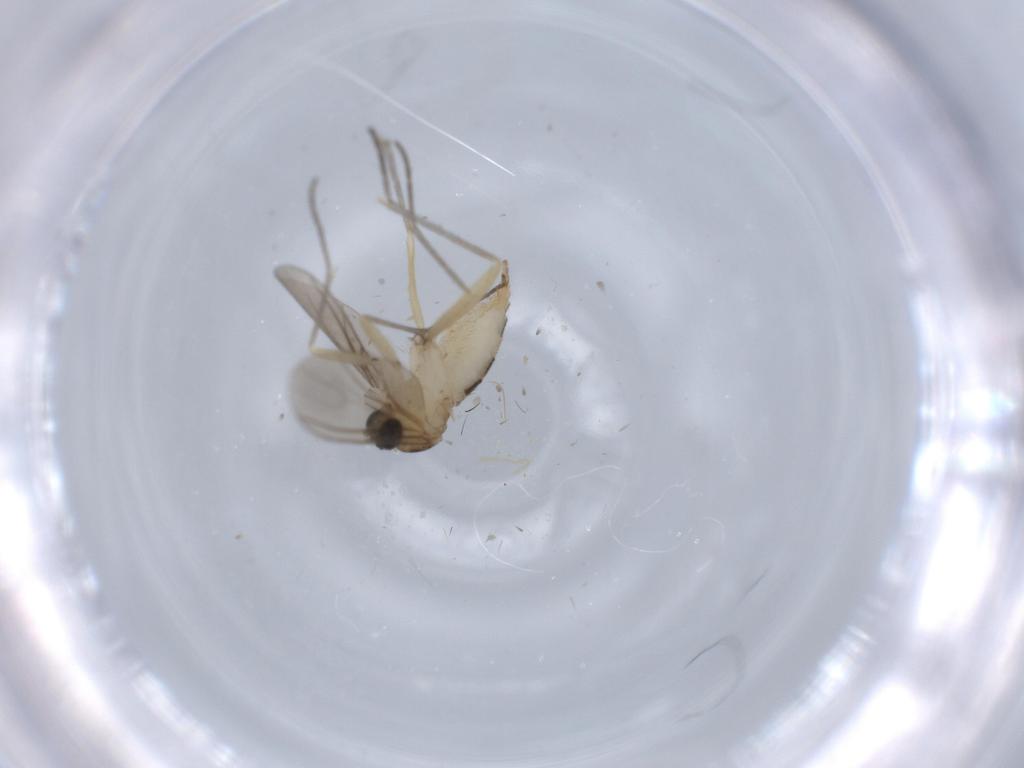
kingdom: Animalia
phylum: Arthropoda
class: Insecta
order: Diptera
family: Sciaridae
